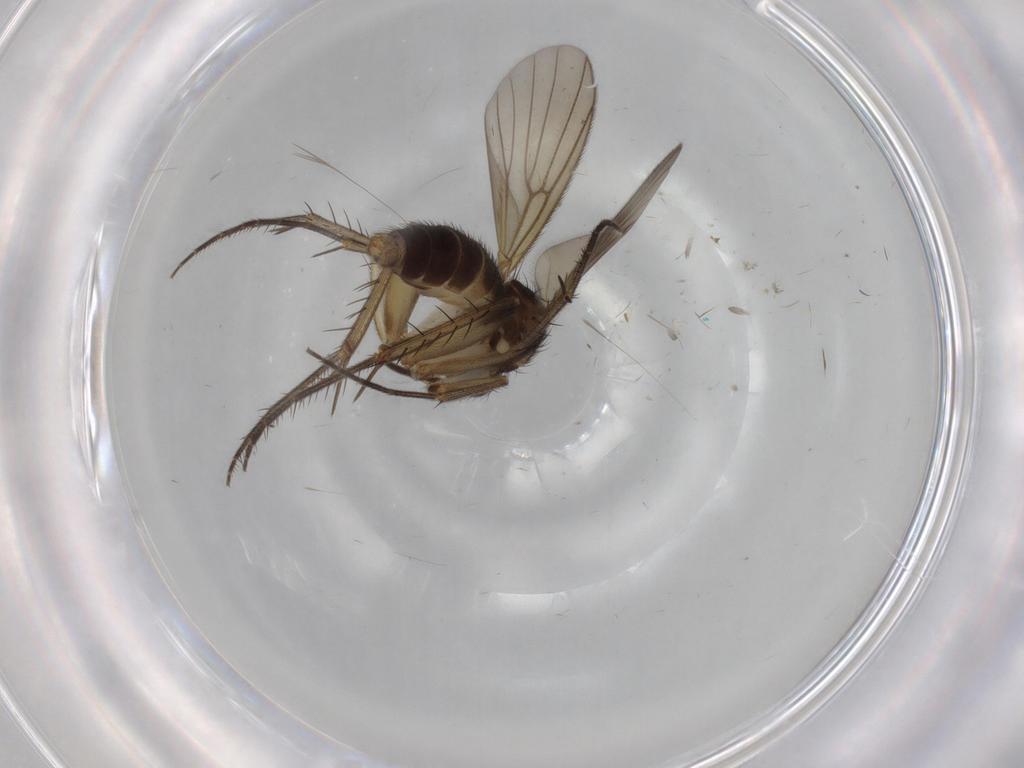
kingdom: Animalia
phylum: Arthropoda
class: Insecta
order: Diptera
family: Mycetophilidae
